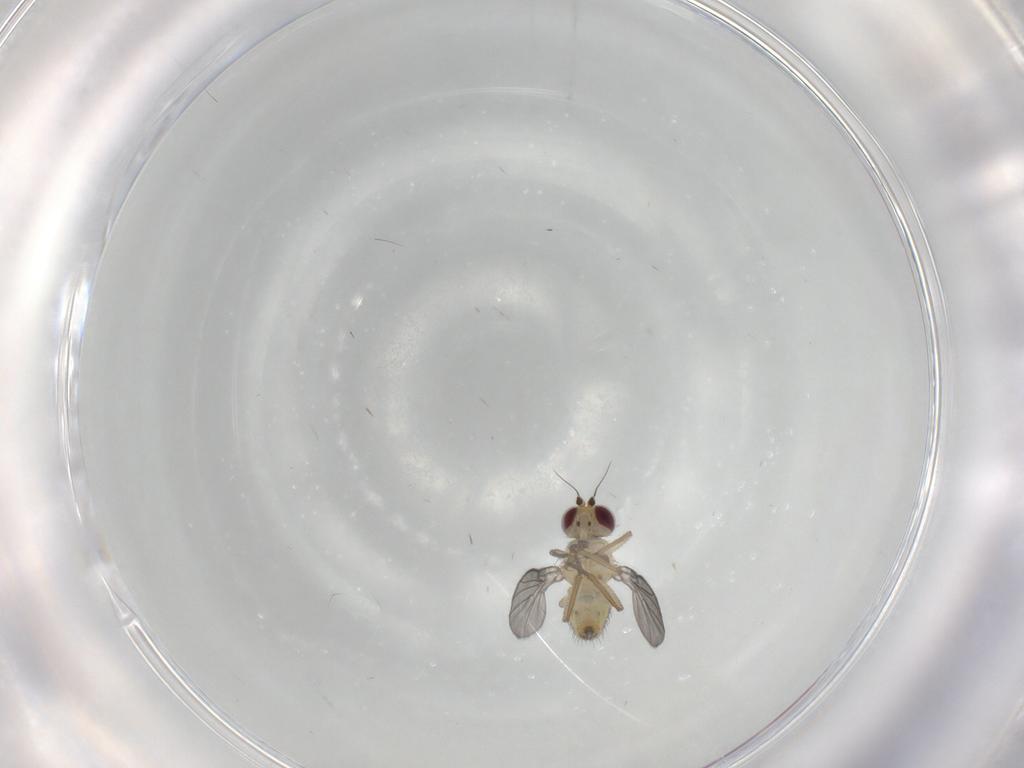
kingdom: Animalia
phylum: Arthropoda
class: Insecta
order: Diptera
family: Agromyzidae
